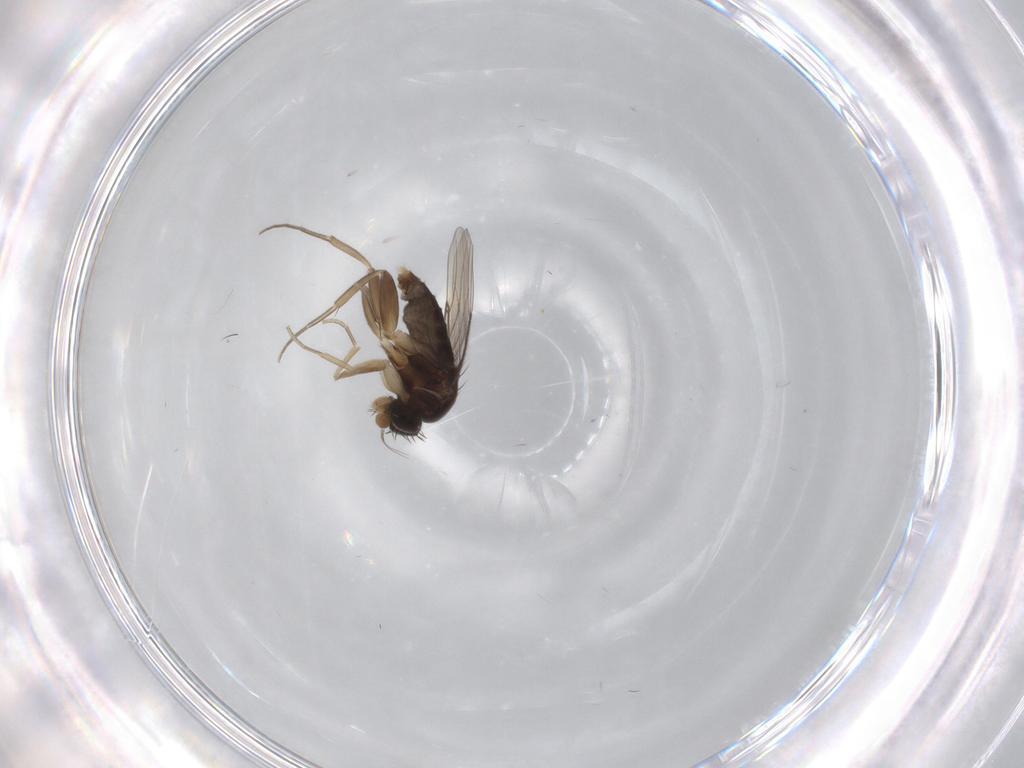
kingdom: Animalia
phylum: Arthropoda
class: Insecta
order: Diptera
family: Phoridae
